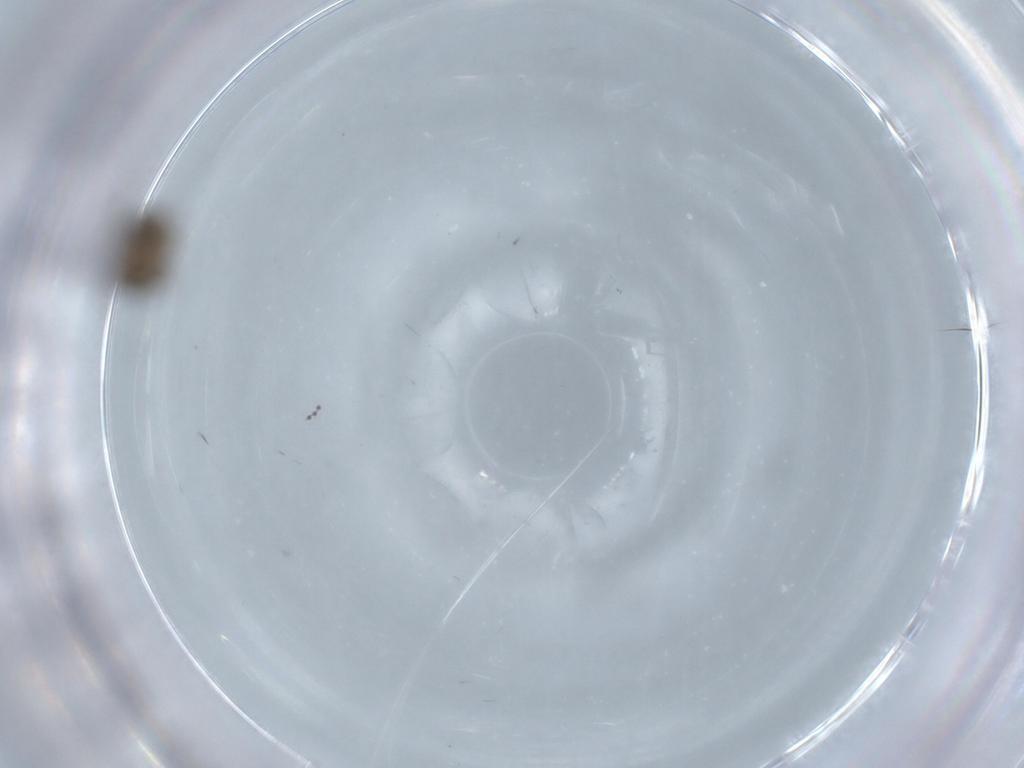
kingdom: Animalia
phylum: Arthropoda
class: Insecta
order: Diptera
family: Psychodidae
